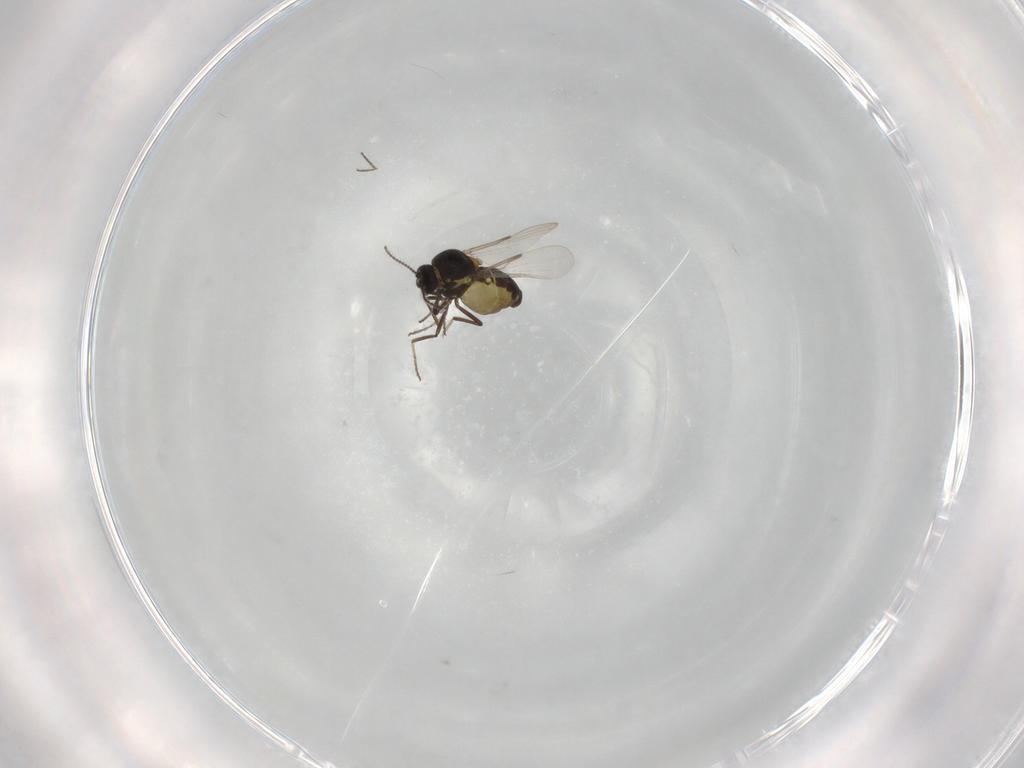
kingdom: Animalia
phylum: Arthropoda
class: Insecta
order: Diptera
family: Ceratopogonidae
